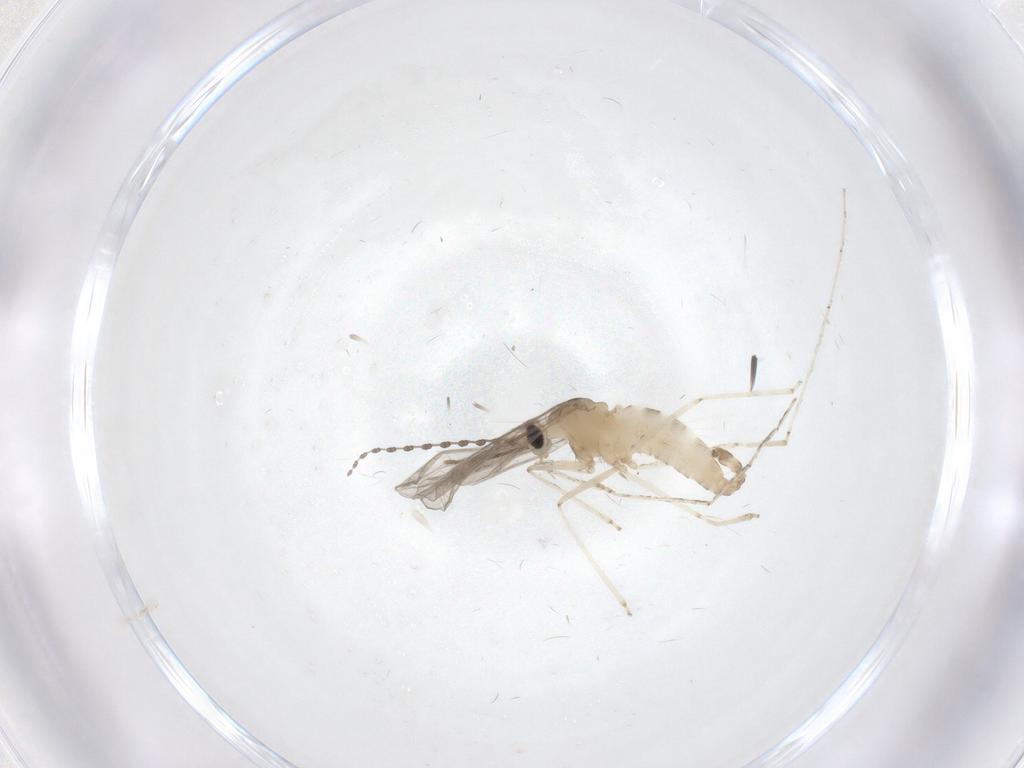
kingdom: Animalia
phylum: Arthropoda
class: Insecta
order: Diptera
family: Cecidomyiidae
